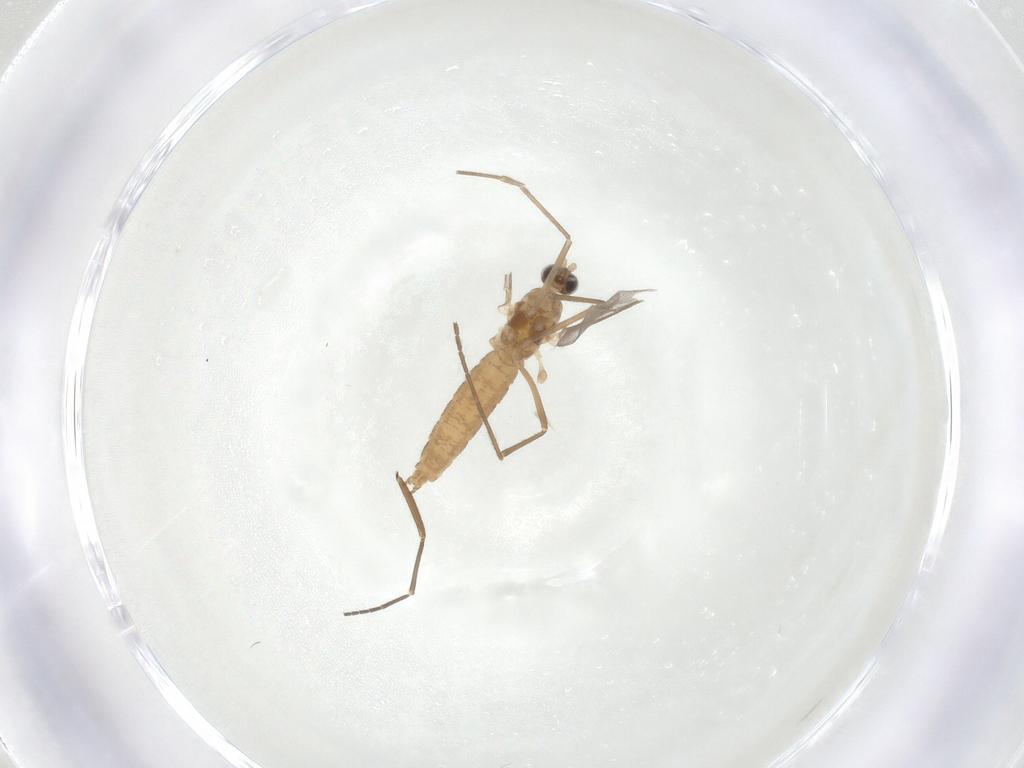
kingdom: Animalia
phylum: Arthropoda
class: Insecta
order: Diptera
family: Cecidomyiidae
